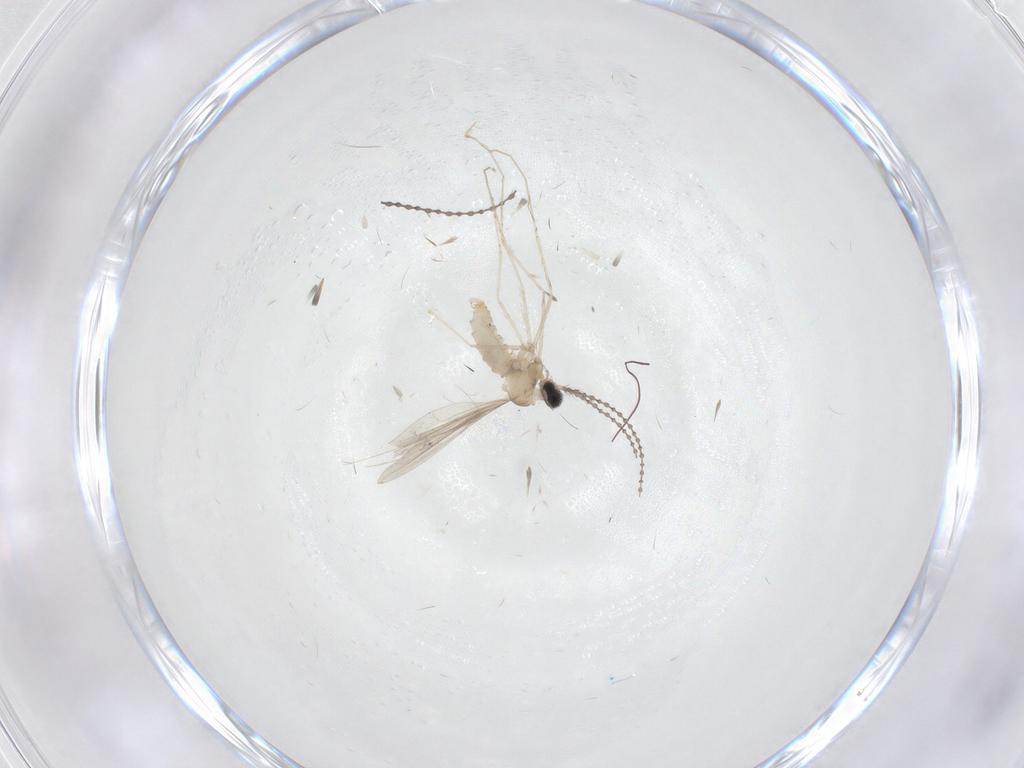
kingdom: Animalia
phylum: Arthropoda
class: Insecta
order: Diptera
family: Cecidomyiidae
